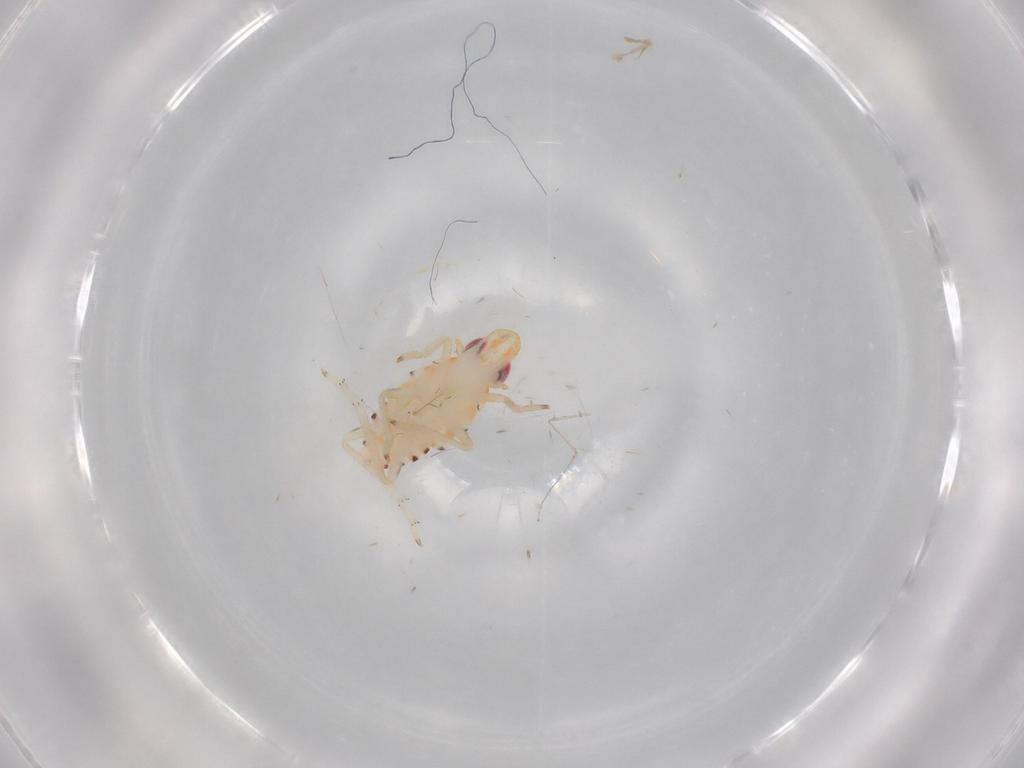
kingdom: Animalia
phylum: Arthropoda
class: Insecta
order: Hemiptera
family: Tropiduchidae
